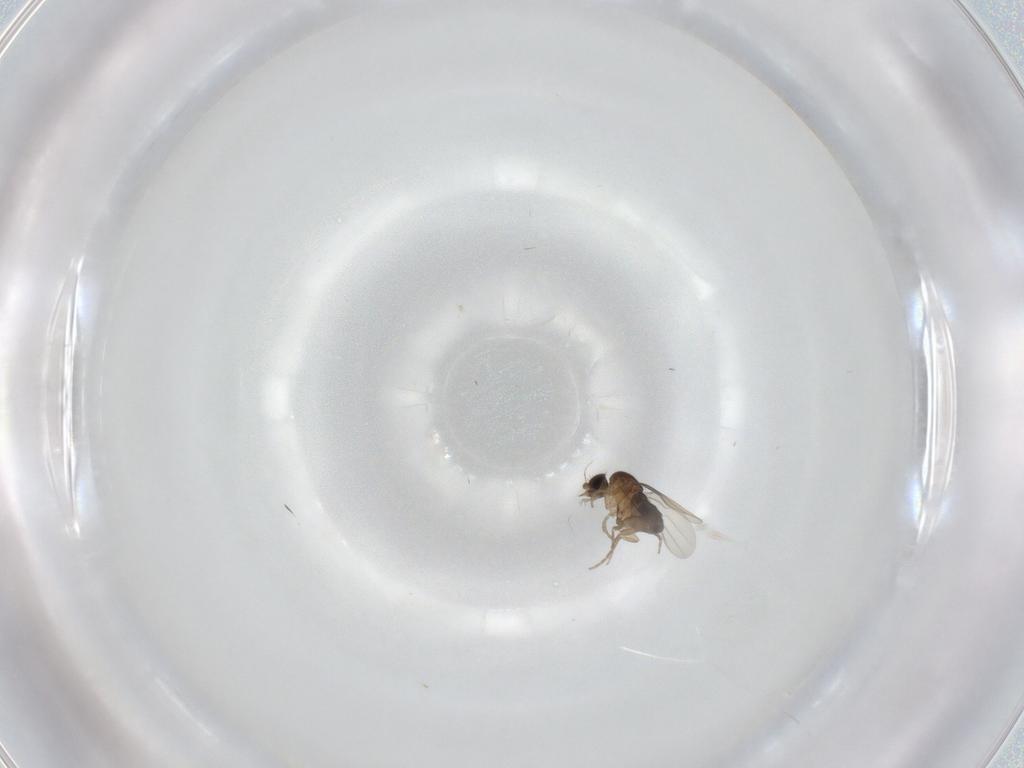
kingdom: Animalia
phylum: Arthropoda
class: Insecta
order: Diptera
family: Phoridae
